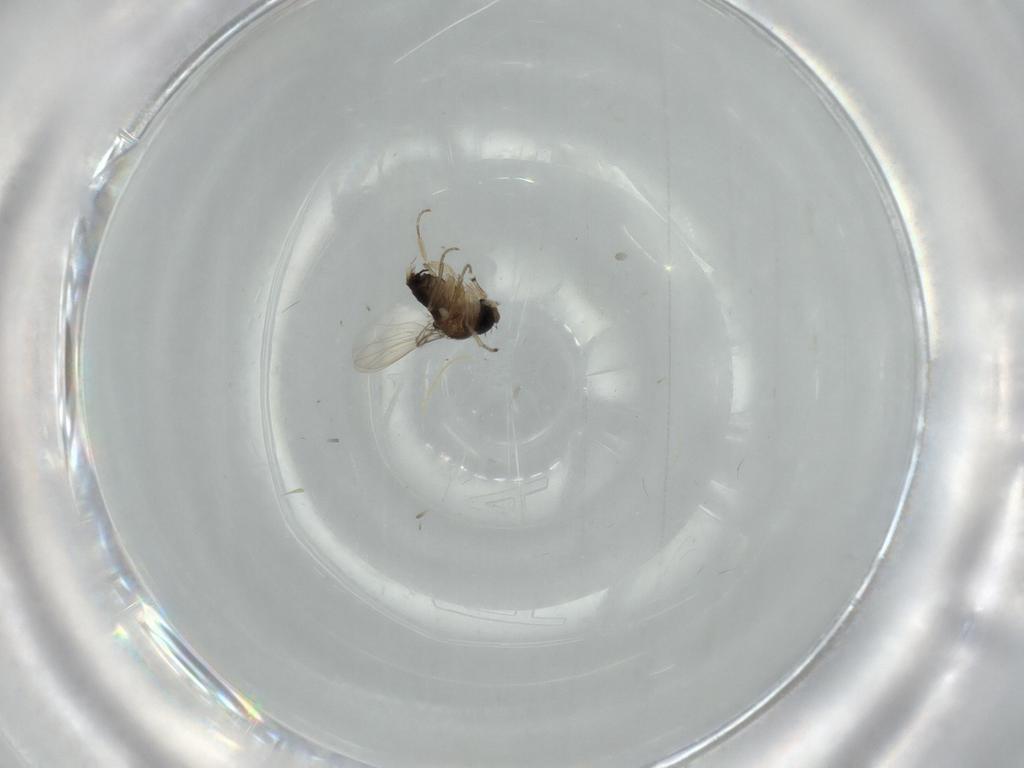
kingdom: Animalia
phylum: Arthropoda
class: Insecta
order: Diptera
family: Phoridae
